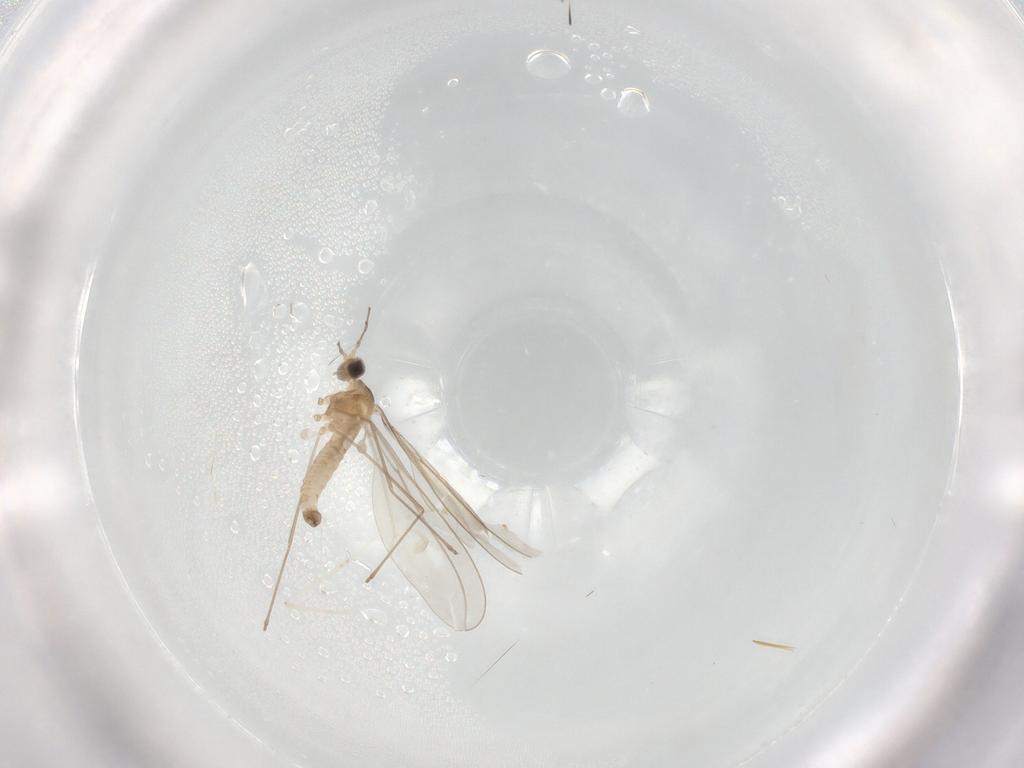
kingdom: Animalia
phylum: Arthropoda
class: Insecta
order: Diptera
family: Cecidomyiidae
